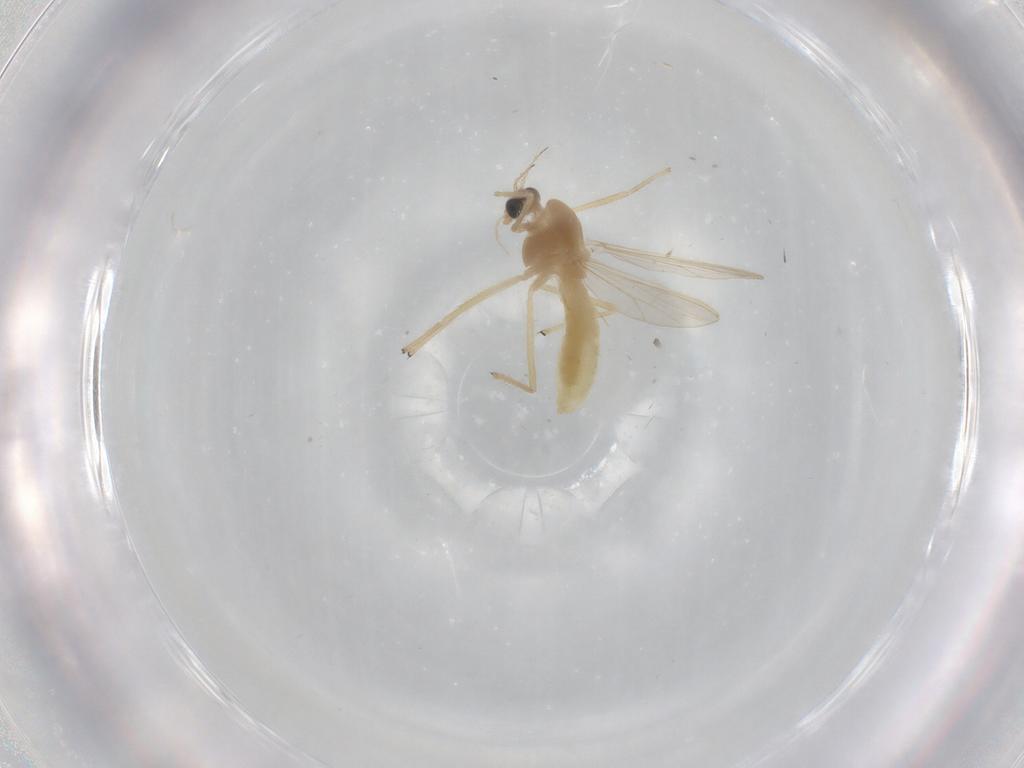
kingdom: Animalia
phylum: Arthropoda
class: Insecta
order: Diptera
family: Chironomidae
